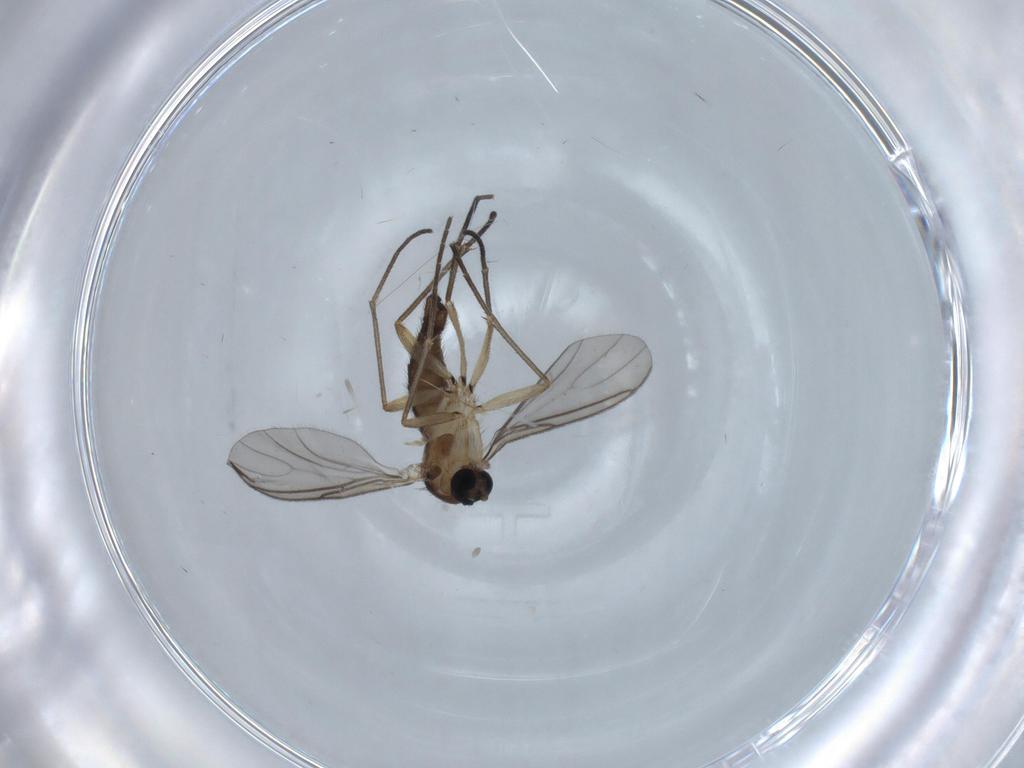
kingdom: Animalia
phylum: Arthropoda
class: Insecta
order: Diptera
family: Sciaridae
